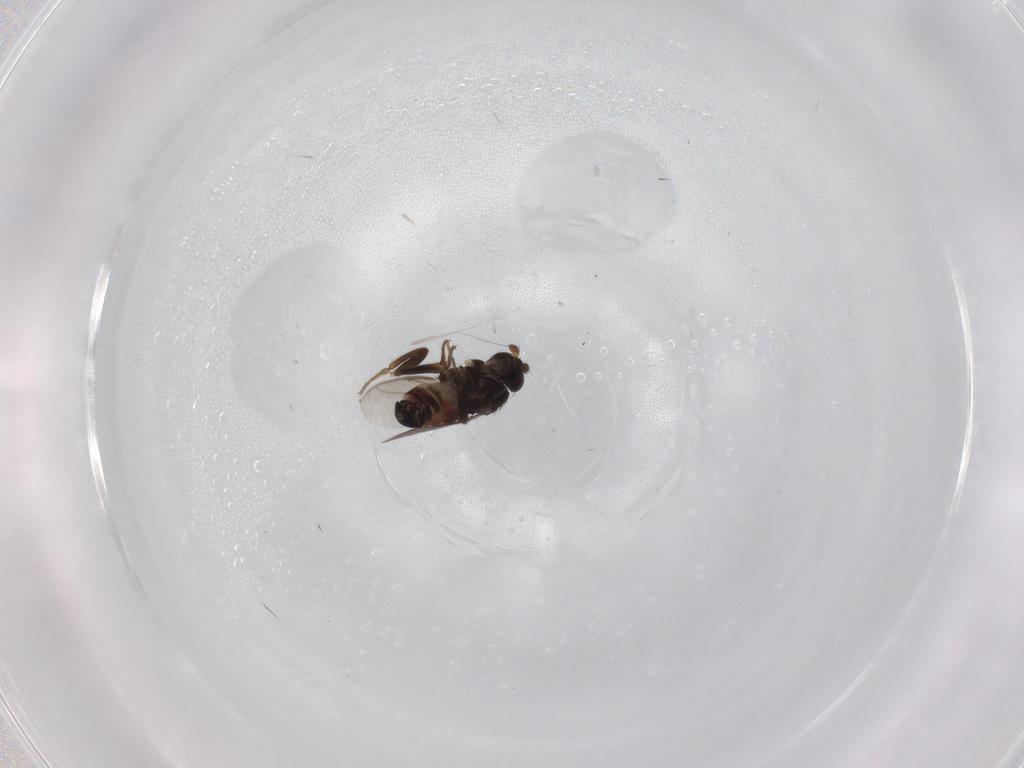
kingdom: Animalia
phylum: Arthropoda
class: Insecta
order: Diptera
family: Sphaeroceridae
